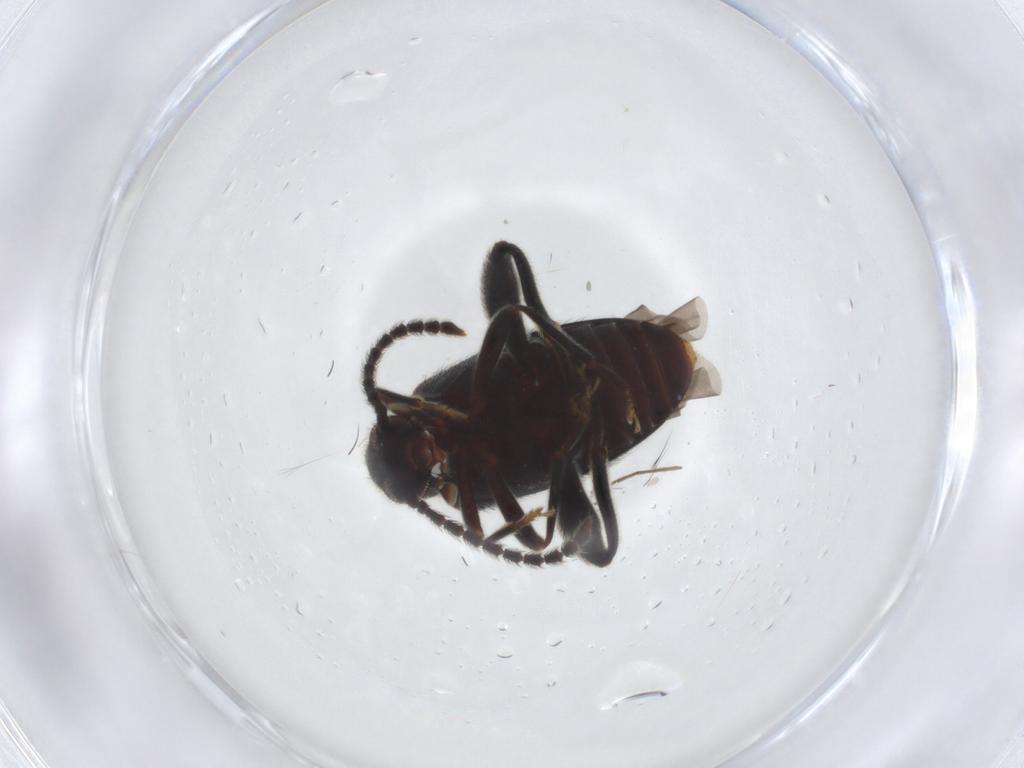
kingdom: Animalia
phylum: Arthropoda
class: Insecta
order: Coleoptera
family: Aderidae
